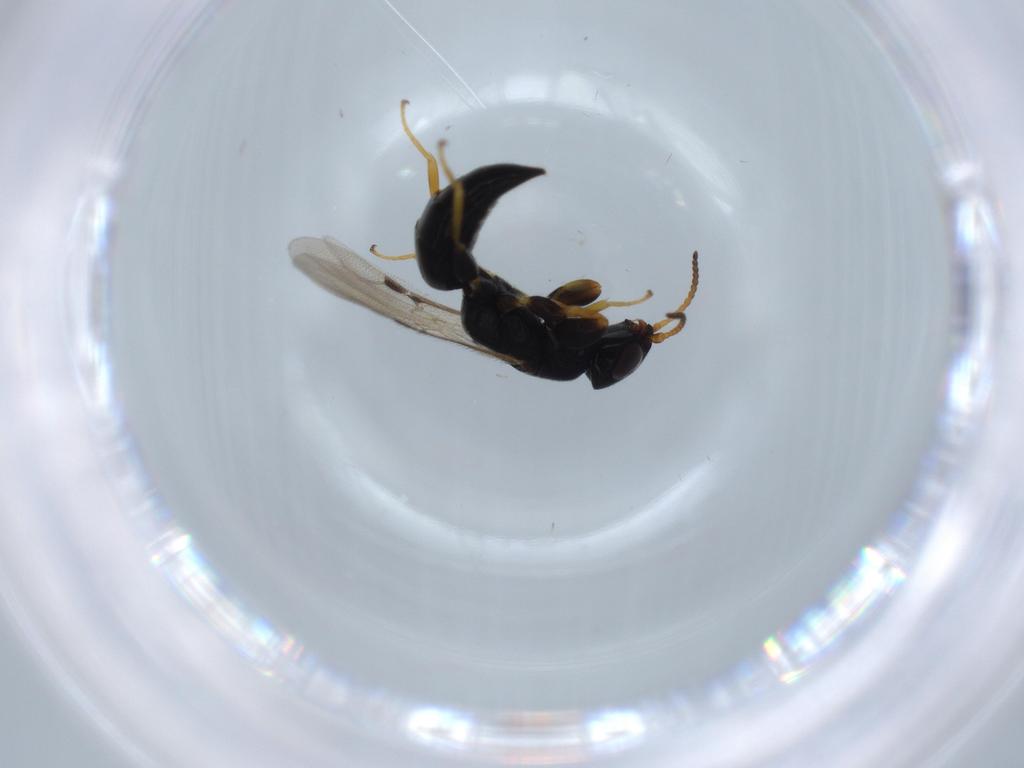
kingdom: Animalia
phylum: Arthropoda
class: Insecta
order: Hymenoptera
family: Bethylidae
